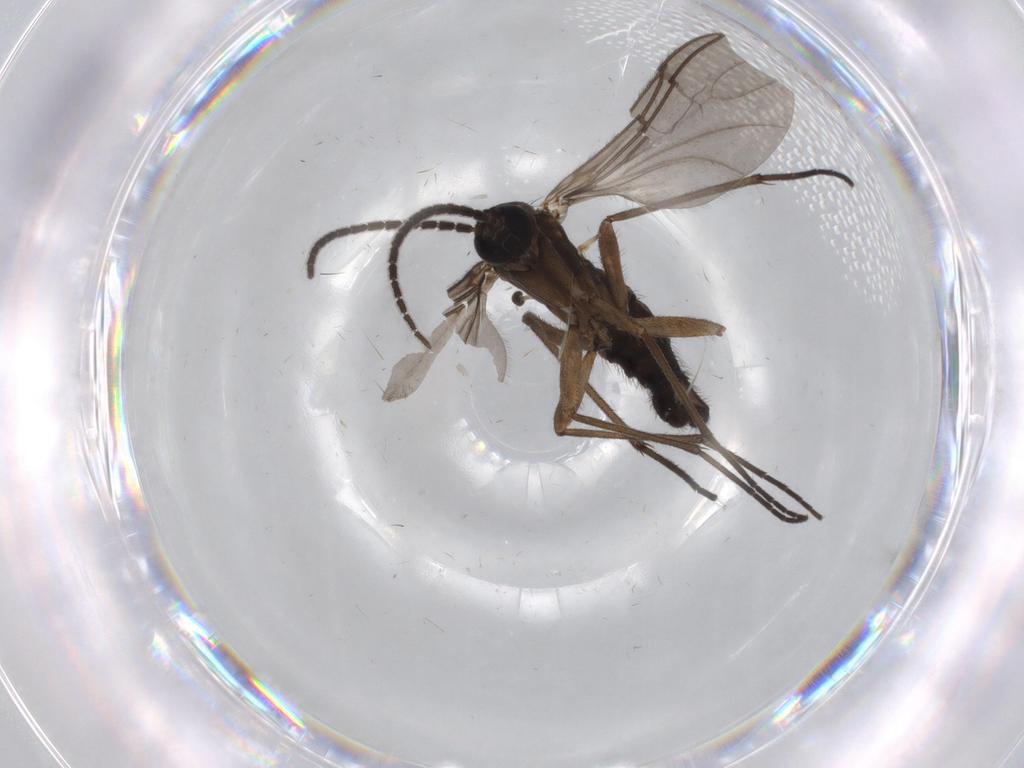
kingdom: Animalia
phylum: Arthropoda
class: Insecta
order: Diptera
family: Sciaridae
